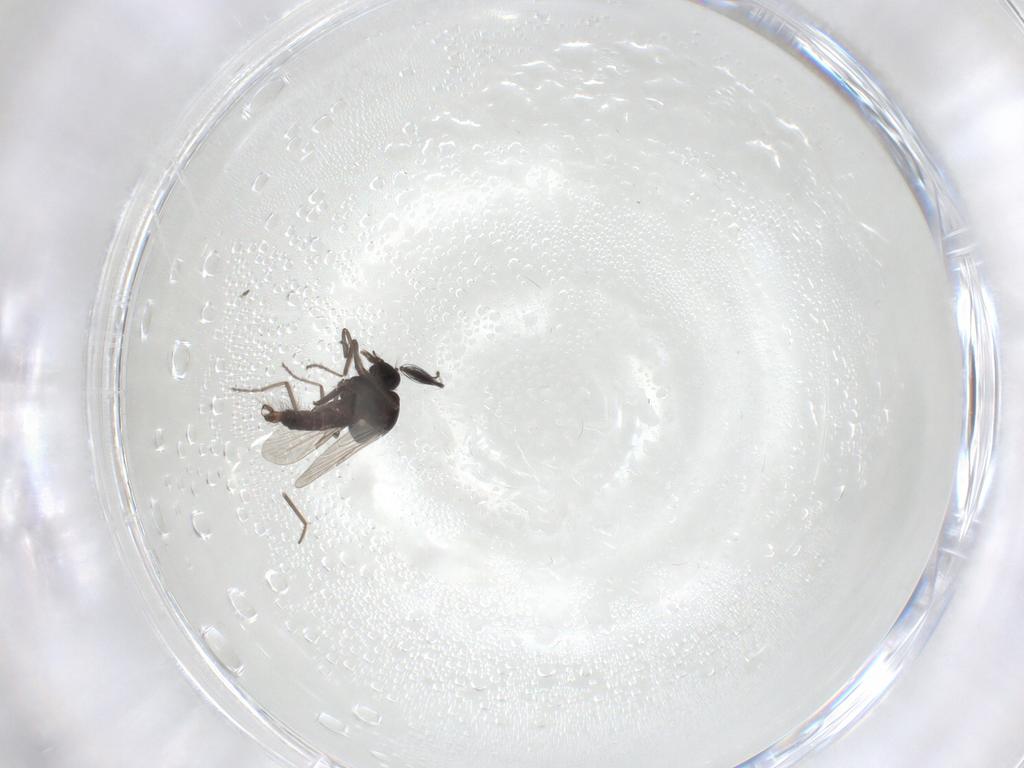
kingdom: Animalia
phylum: Arthropoda
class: Insecta
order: Diptera
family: Ceratopogonidae
